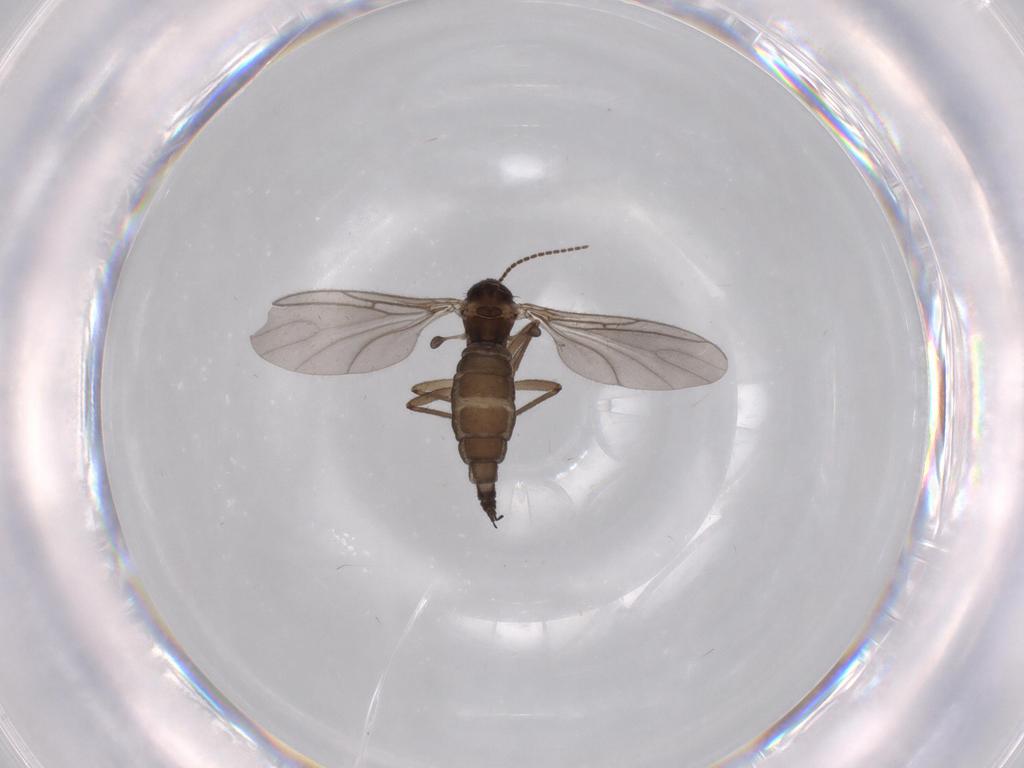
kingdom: Animalia
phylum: Arthropoda
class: Insecta
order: Diptera
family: Sciaridae
